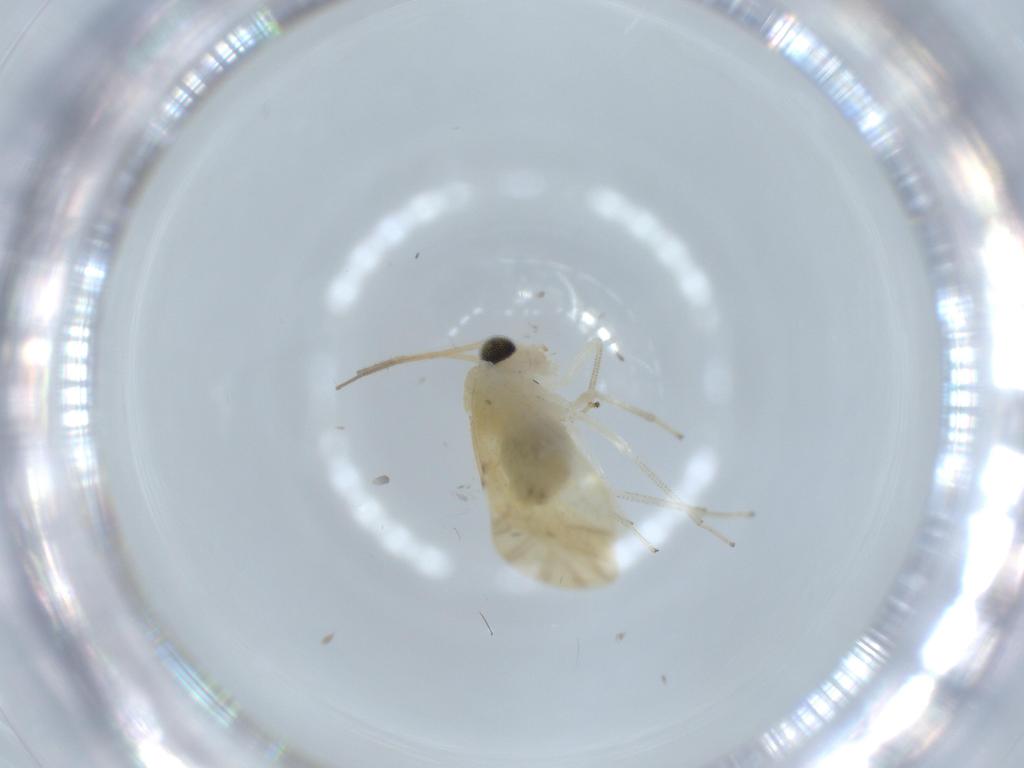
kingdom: Animalia
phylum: Arthropoda
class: Insecta
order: Psocodea
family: Caeciliusidae
